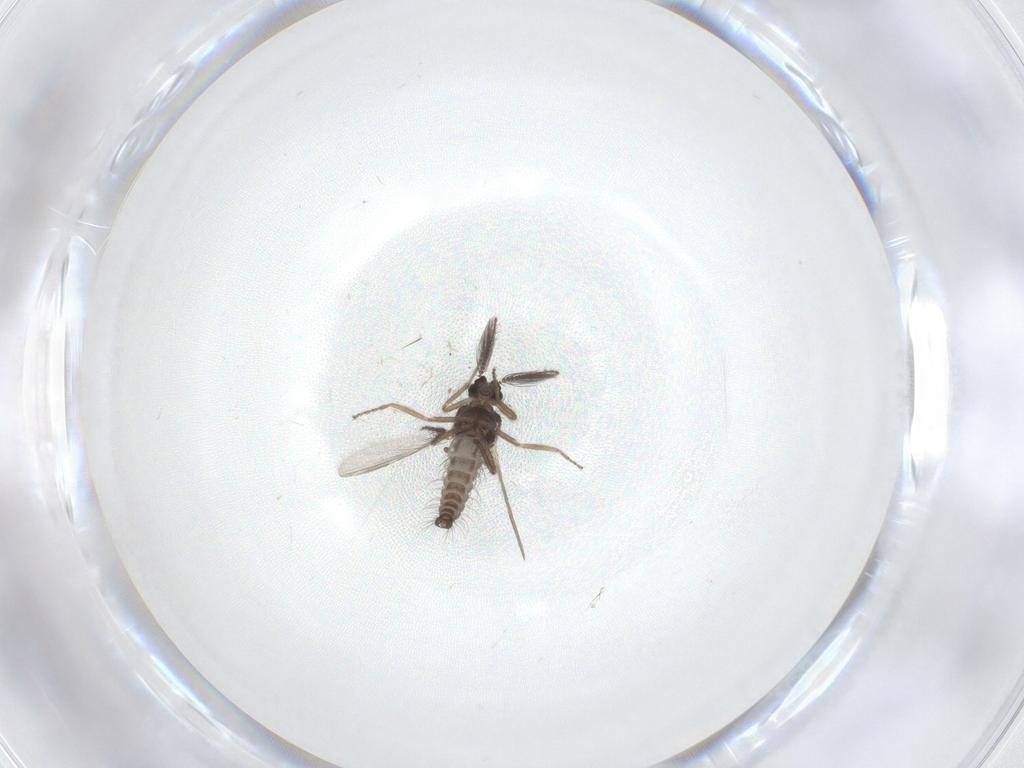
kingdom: Animalia
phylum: Arthropoda
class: Insecta
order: Diptera
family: Ceratopogonidae
